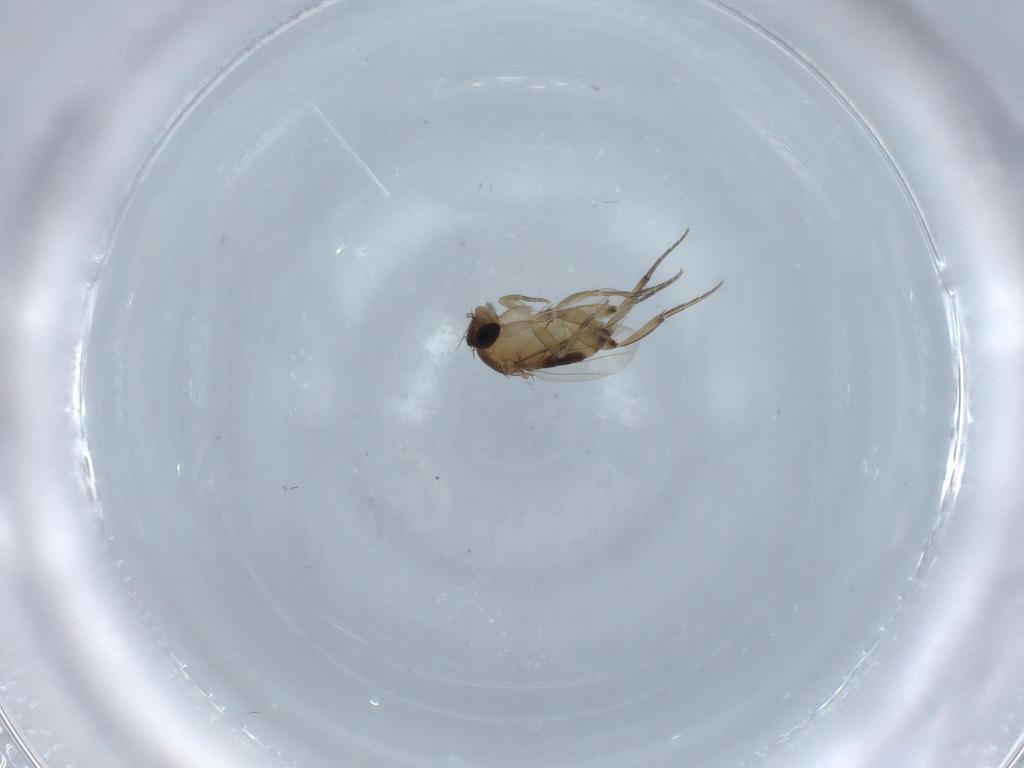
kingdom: Animalia
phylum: Arthropoda
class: Insecta
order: Diptera
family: Phoridae
